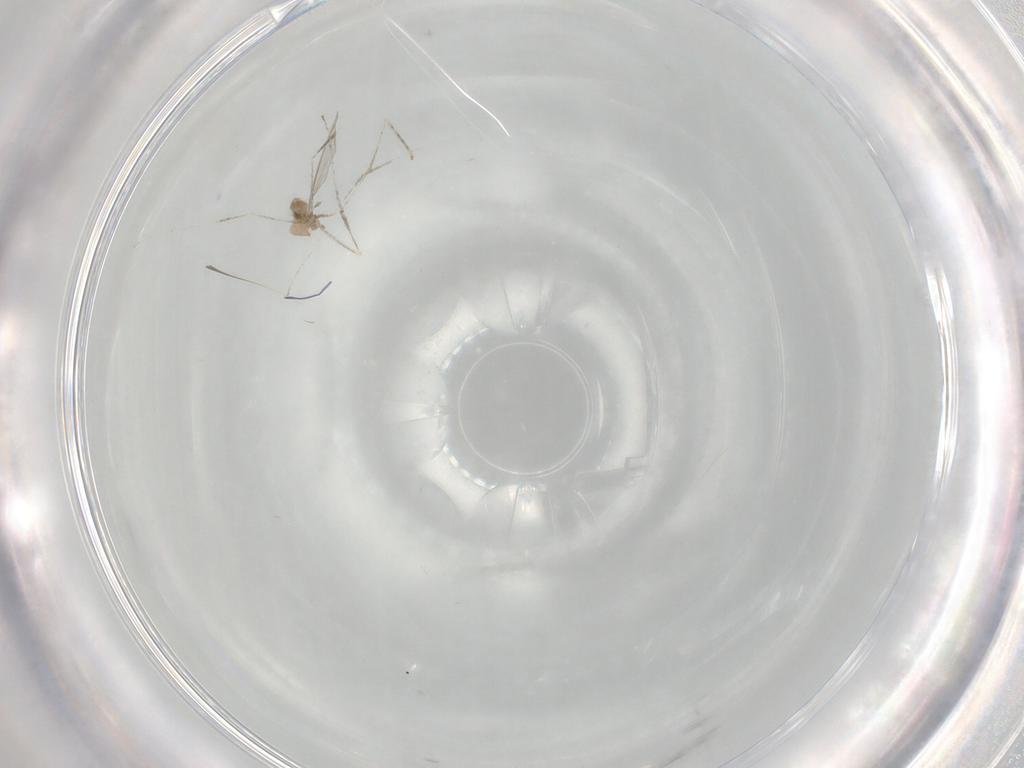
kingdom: Animalia
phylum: Arthropoda
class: Insecta
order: Diptera
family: Cecidomyiidae
